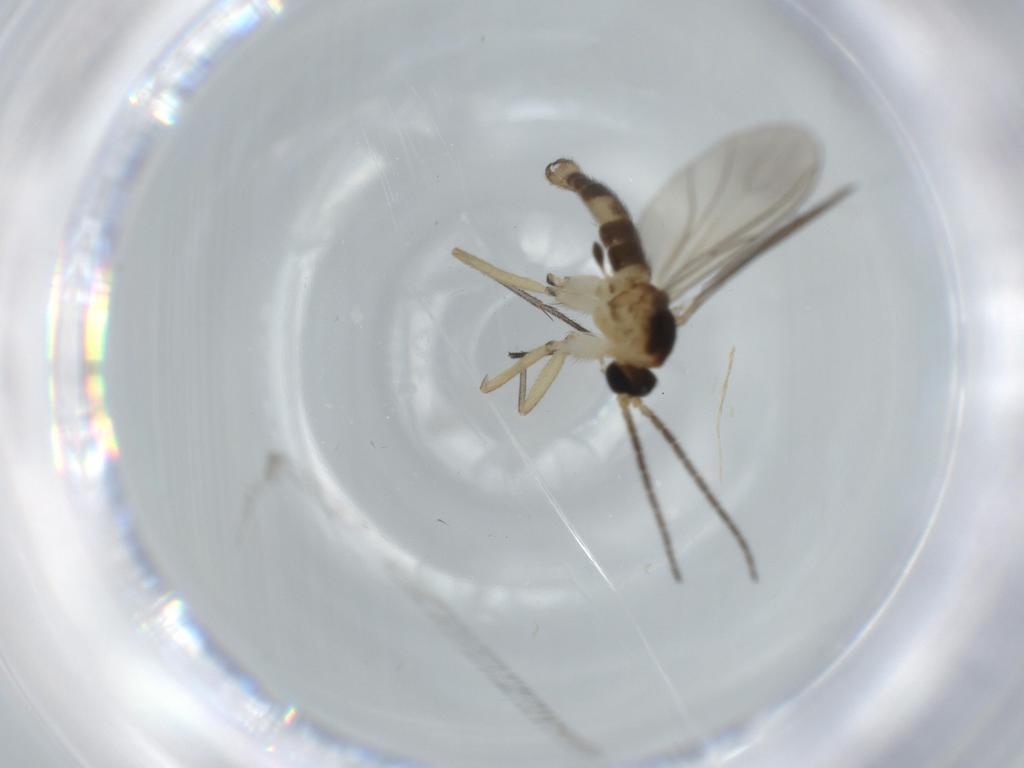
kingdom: Animalia
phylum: Arthropoda
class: Insecta
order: Diptera
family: Sciaridae
